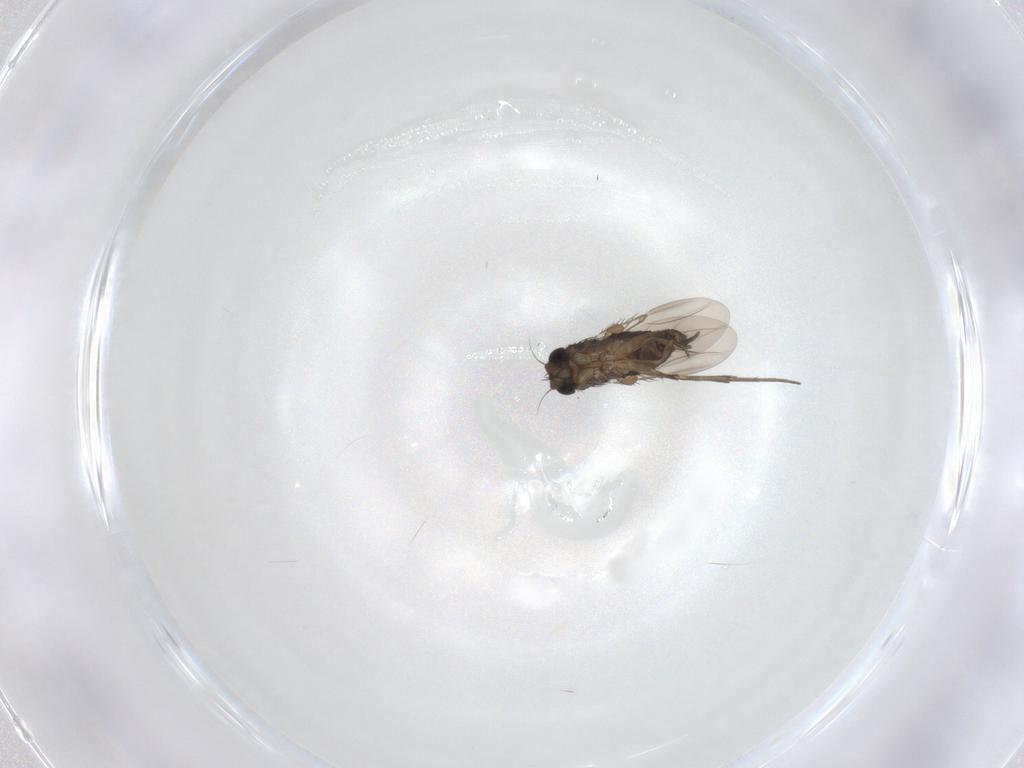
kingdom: Animalia
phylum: Arthropoda
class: Insecta
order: Diptera
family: Phoridae
